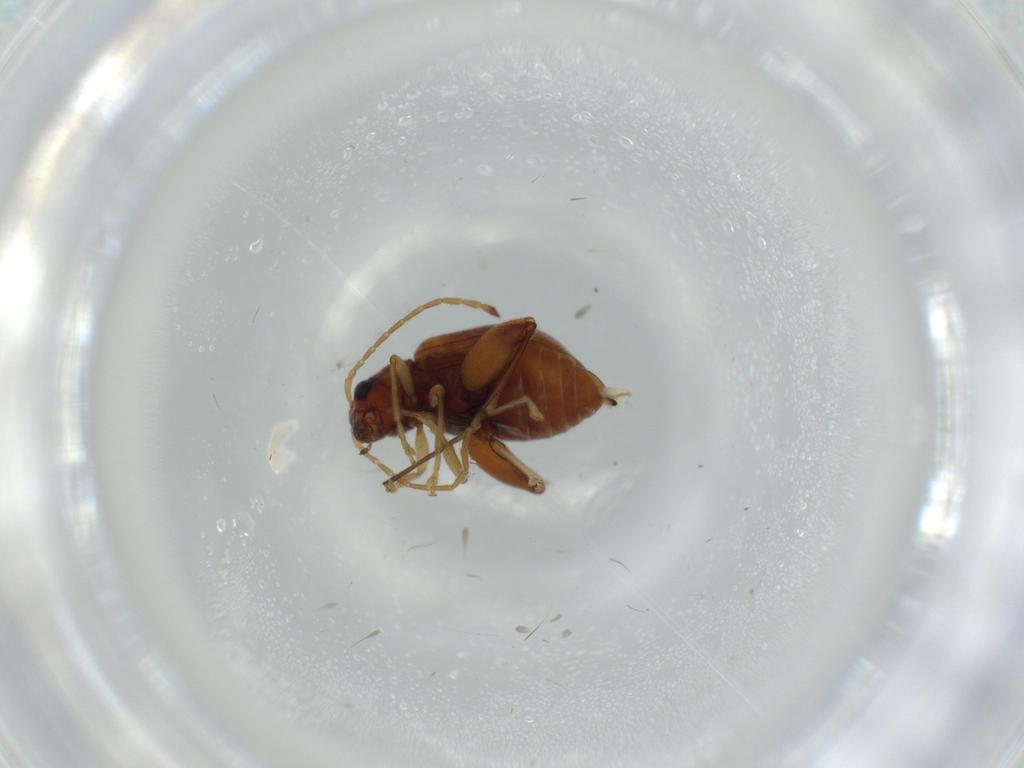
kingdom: Animalia
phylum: Arthropoda
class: Insecta
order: Coleoptera
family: Chrysomelidae
